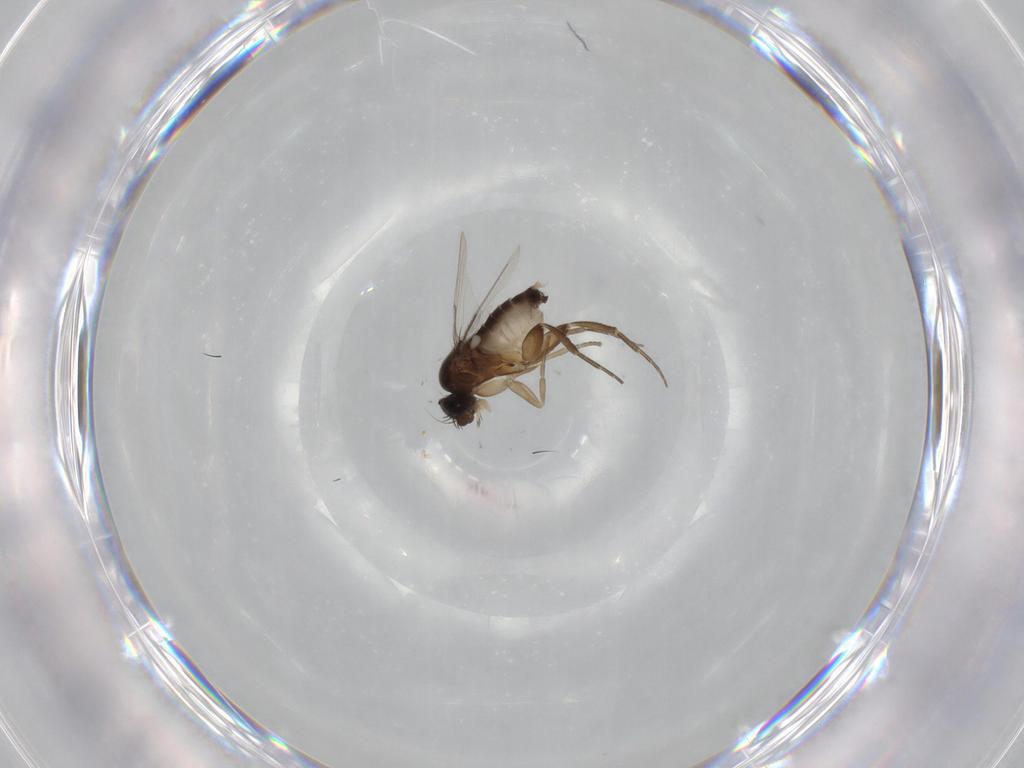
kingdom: Animalia
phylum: Arthropoda
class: Insecta
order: Diptera
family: Phoridae
